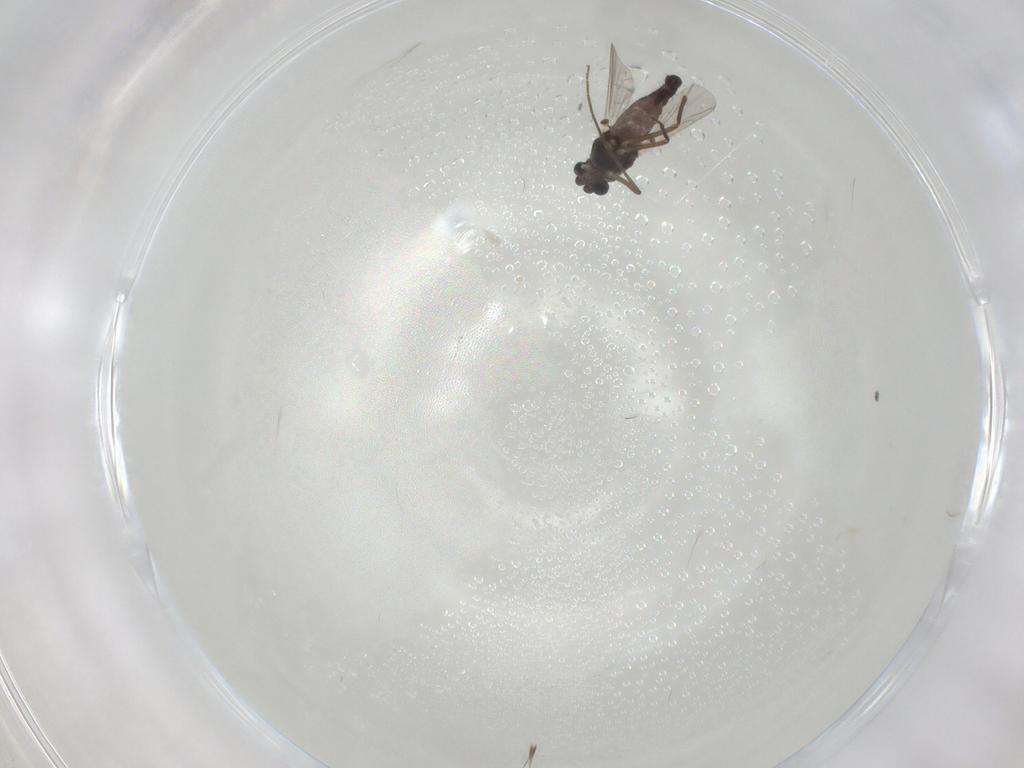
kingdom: Animalia
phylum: Arthropoda
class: Insecta
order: Diptera
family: Chironomidae
